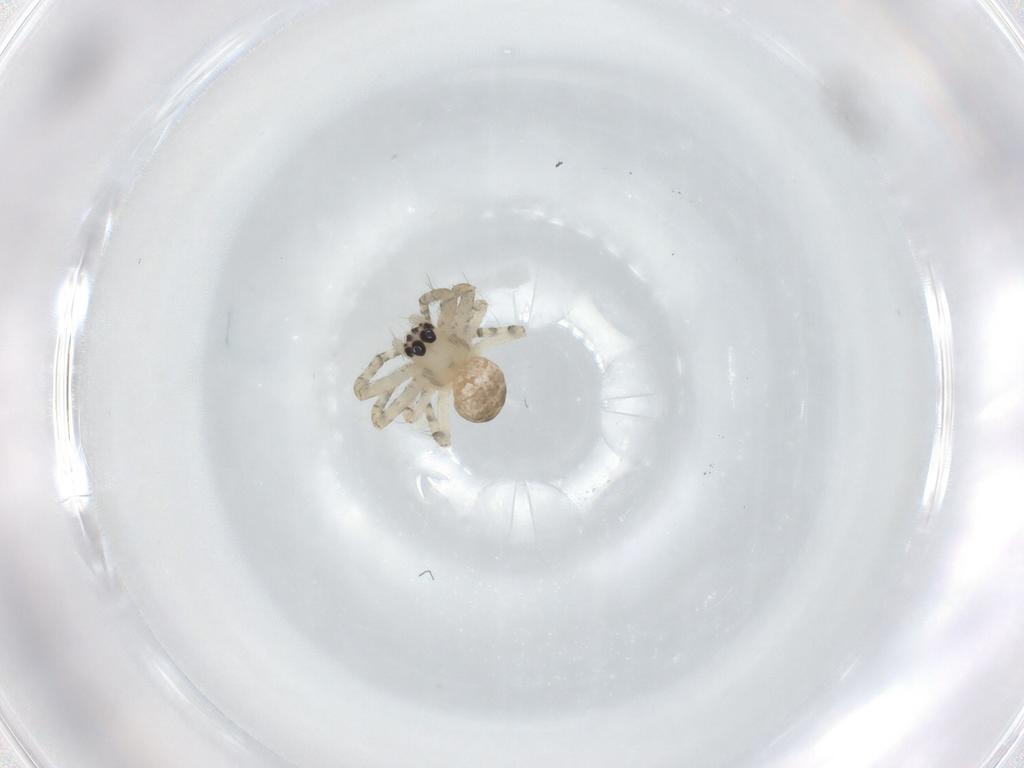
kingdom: Animalia
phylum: Arthropoda
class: Arachnida
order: Araneae
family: Araneidae
